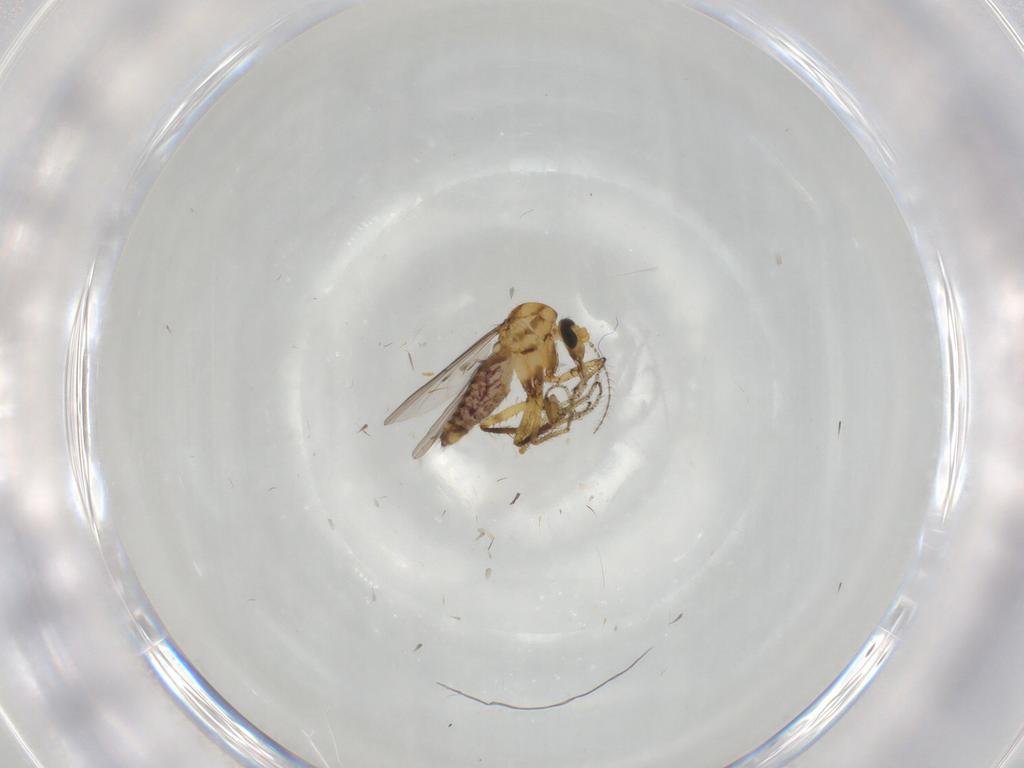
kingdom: Animalia
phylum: Arthropoda
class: Insecta
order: Diptera
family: Ceratopogonidae
